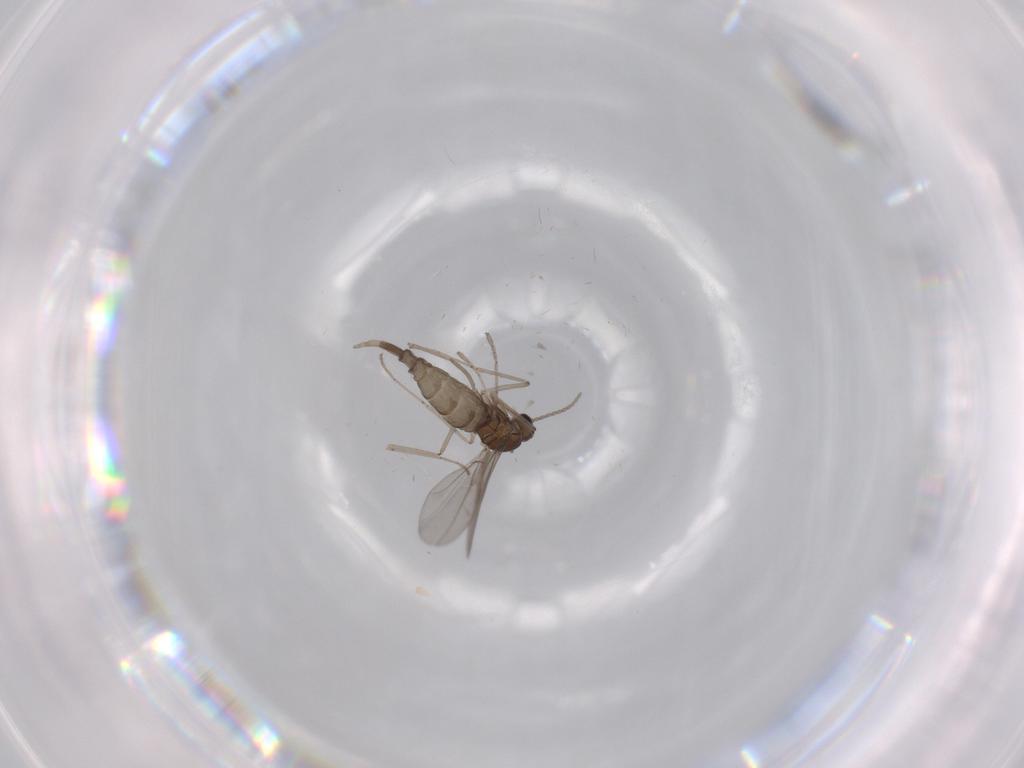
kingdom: Animalia
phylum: Arthropoda
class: Insecta
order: Diptera
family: Cecidomyiidae
